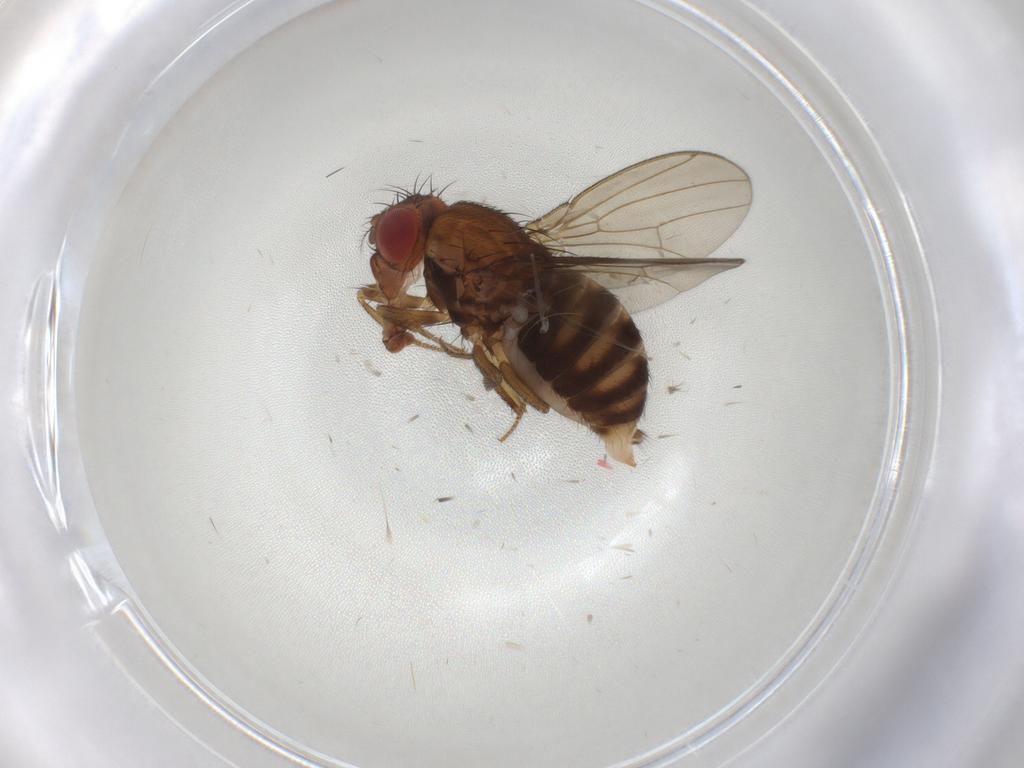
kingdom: Animalia
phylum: Arthropoda
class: Insecta
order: Diptera
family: Drosophilidae
